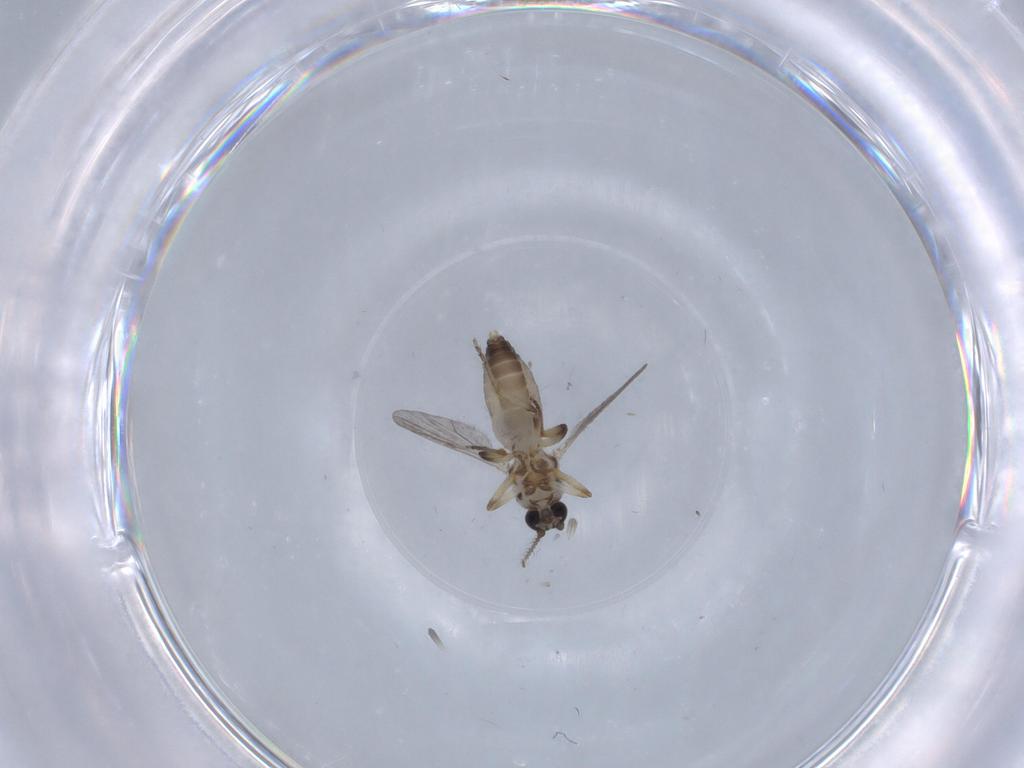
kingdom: Animalia
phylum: Arthropoda
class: Insecta
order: Diptera
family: Ceratopogonidae
